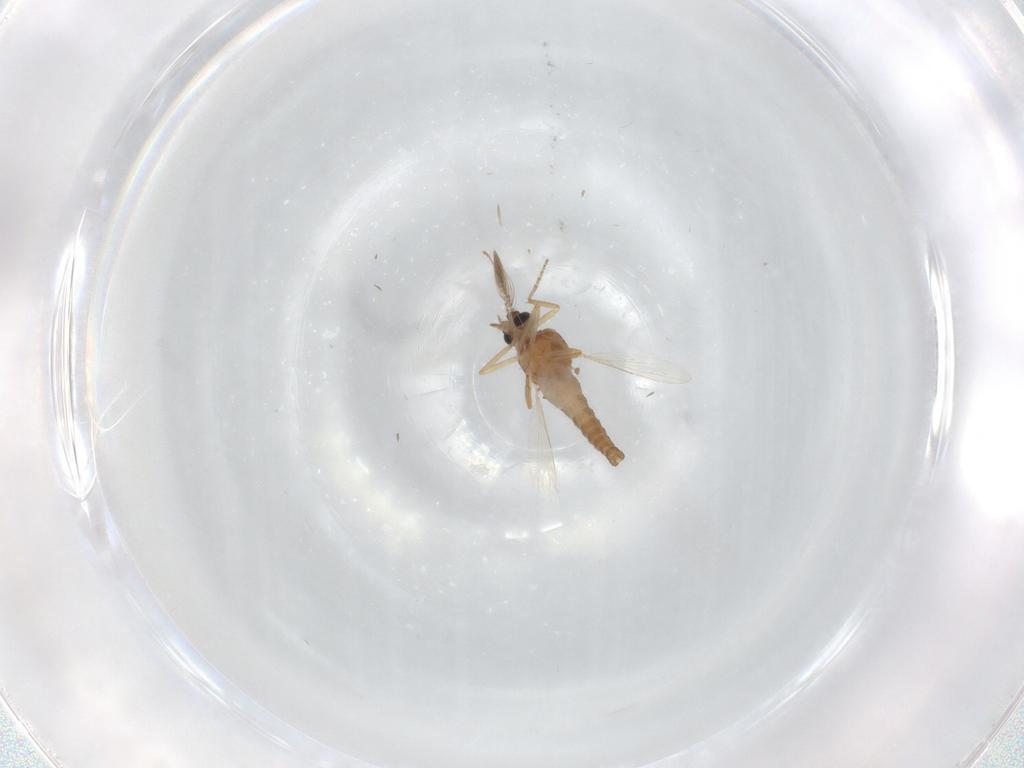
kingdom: Animalia
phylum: Arthropoda
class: Insecta
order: Diptera
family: Ceratopogonidae
